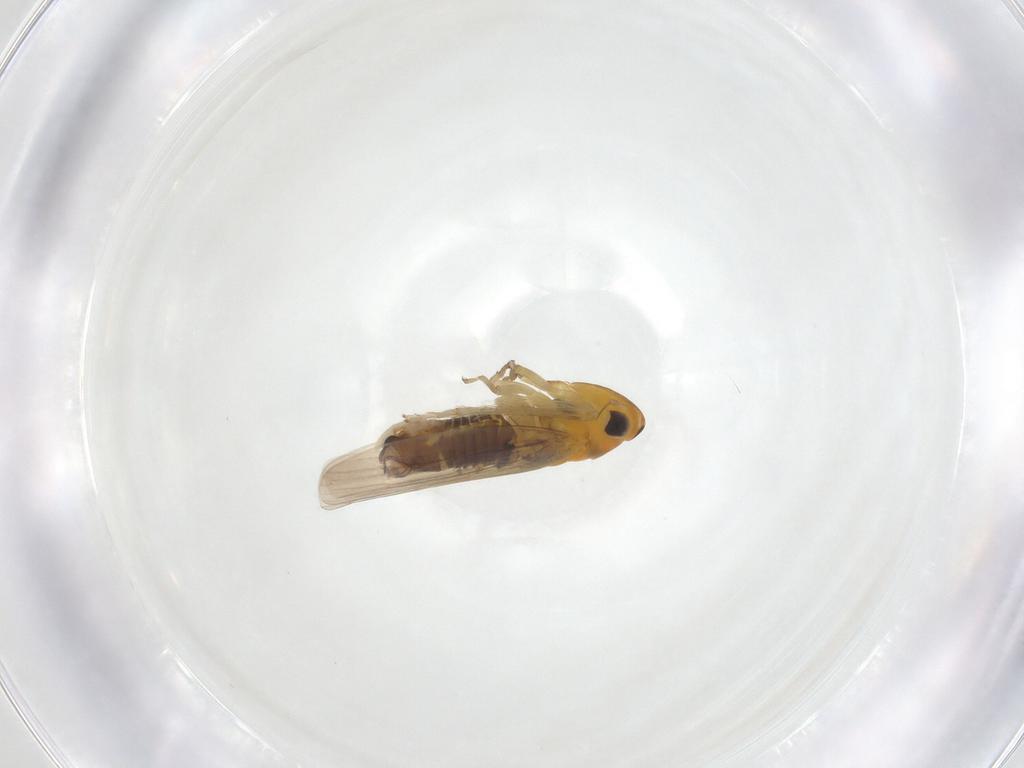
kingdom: Animalia
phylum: Arthropoda
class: Insecta
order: Hemiptera
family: Cicadellidae
